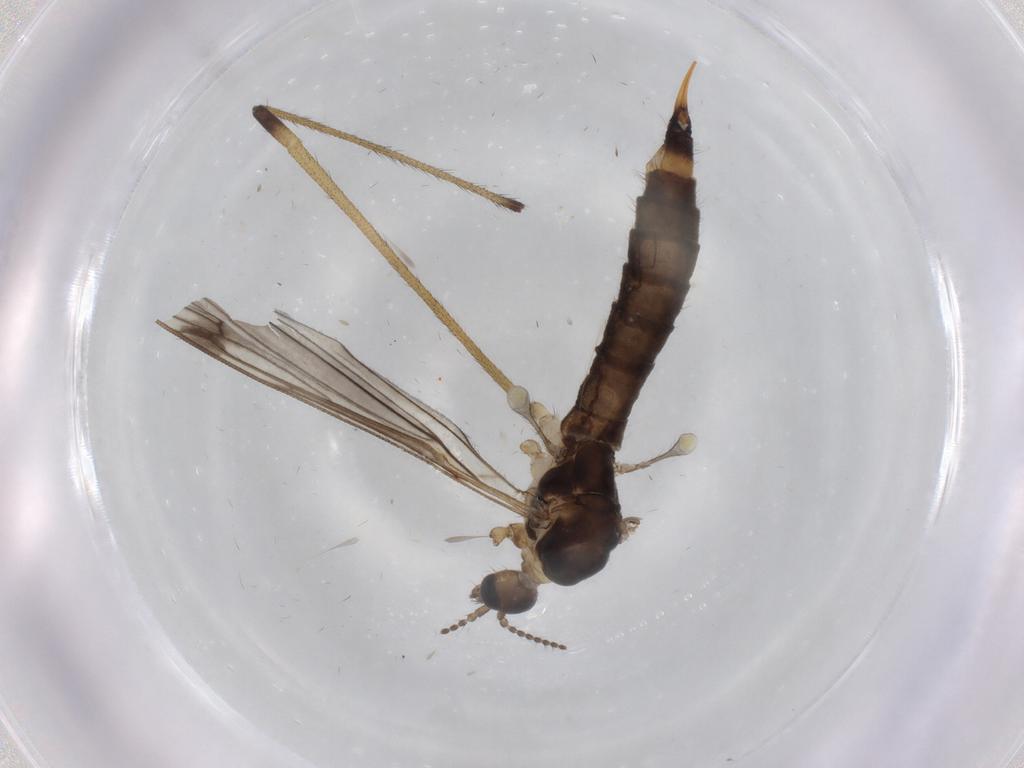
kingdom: Animalia
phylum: Arthropoda
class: Insecta
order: Diptera
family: Phoridae
